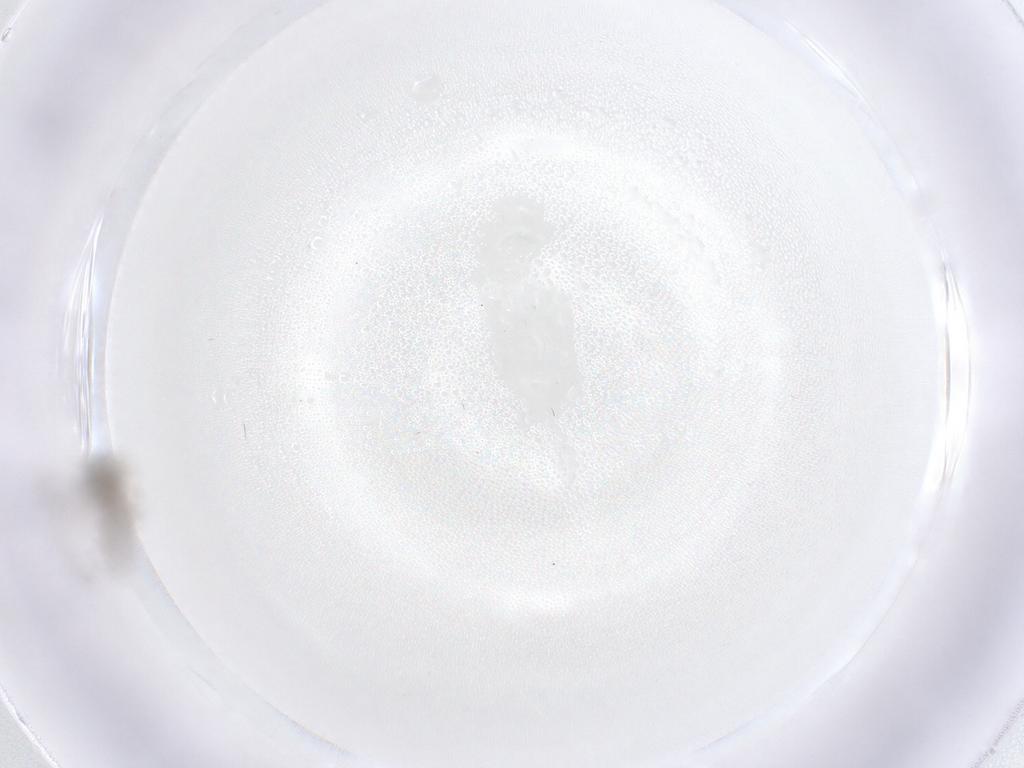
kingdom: Animalia
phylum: Arthropoda
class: Insecta
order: Diptera
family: Psychodidae
